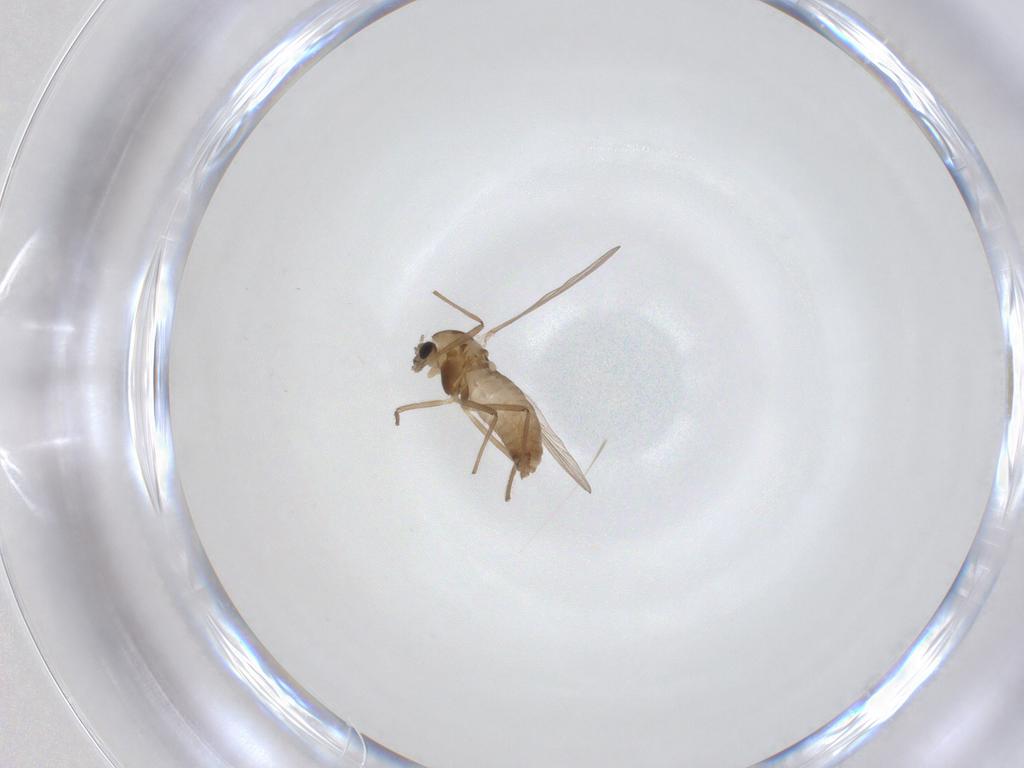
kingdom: Animalia
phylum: Arthropoda
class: Insecta
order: Diptera
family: Chironomidae
